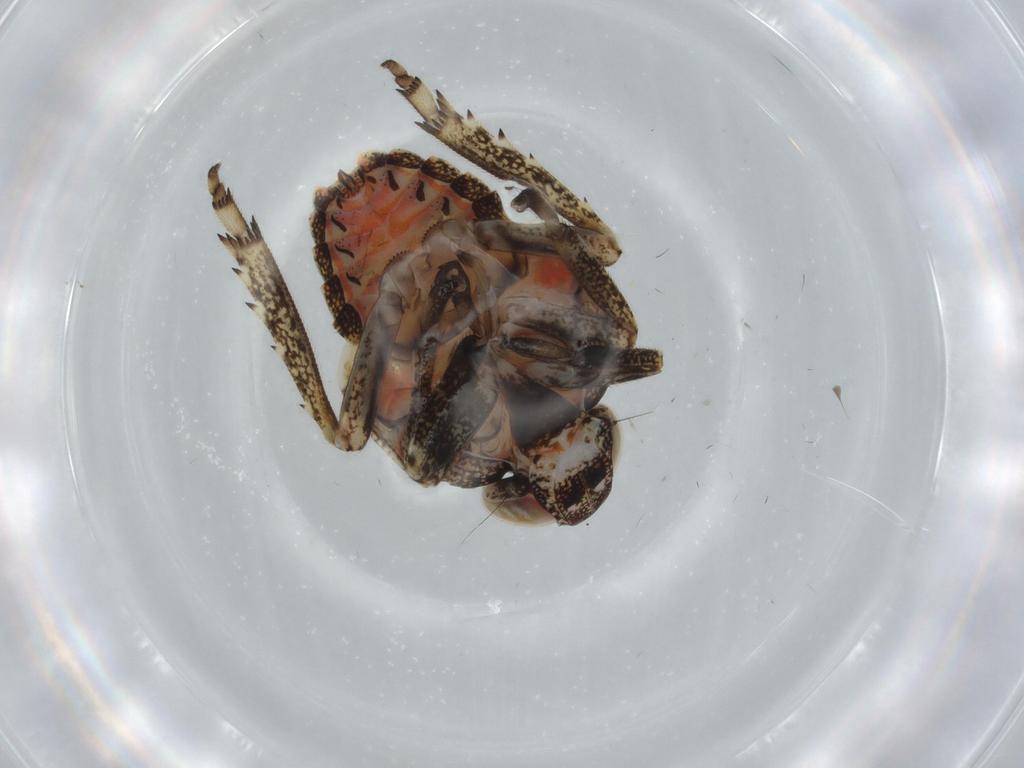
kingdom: Animalia
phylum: Arthropoda
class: Insecta
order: Hemiptera
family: Issidae
